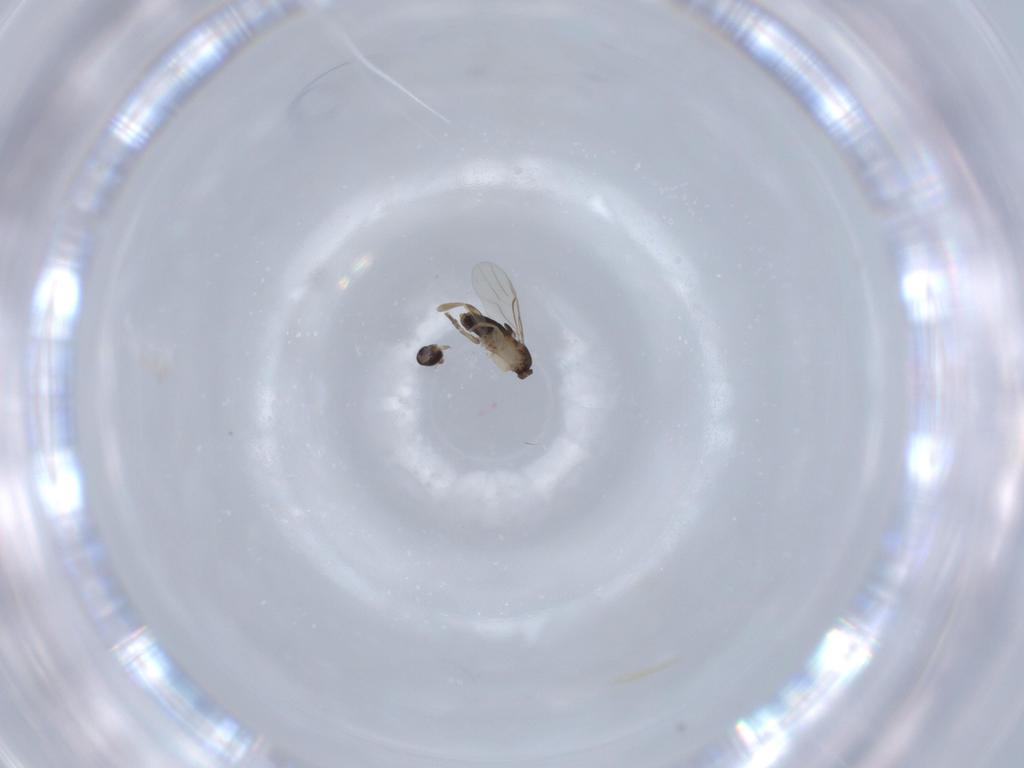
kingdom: Animalia
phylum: Arthropoda
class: Insecta
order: Diptera
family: Phoridae
